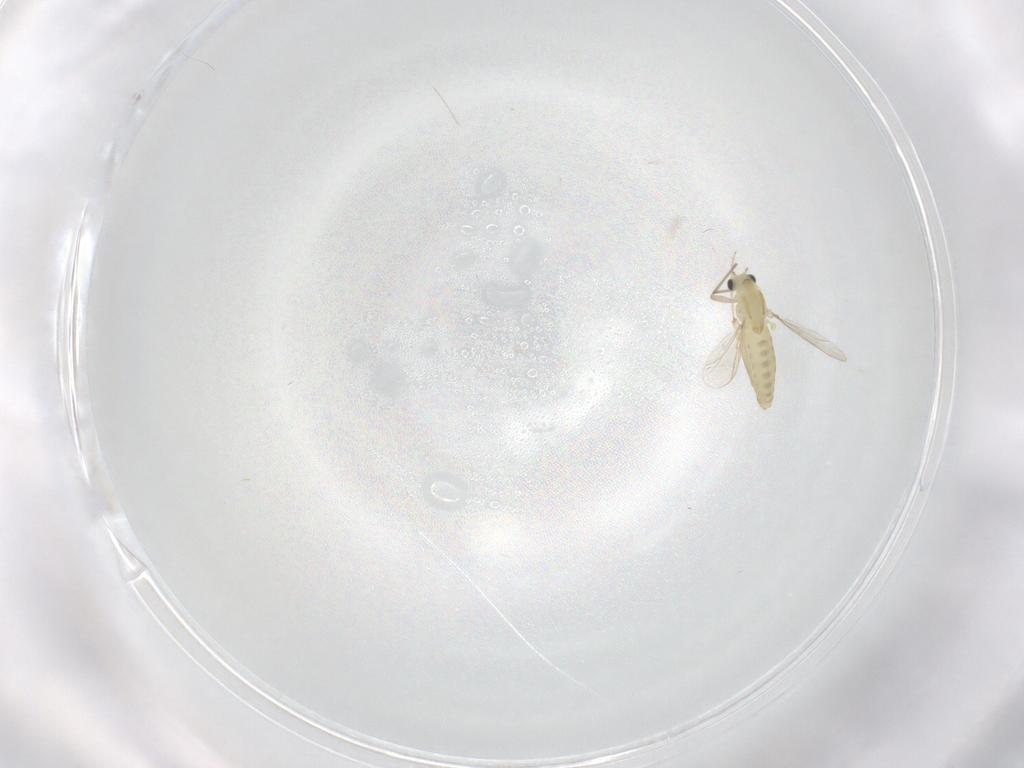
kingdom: Animalia
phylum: Arthropoda
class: Insecta
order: Diptera
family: Chironomidae
